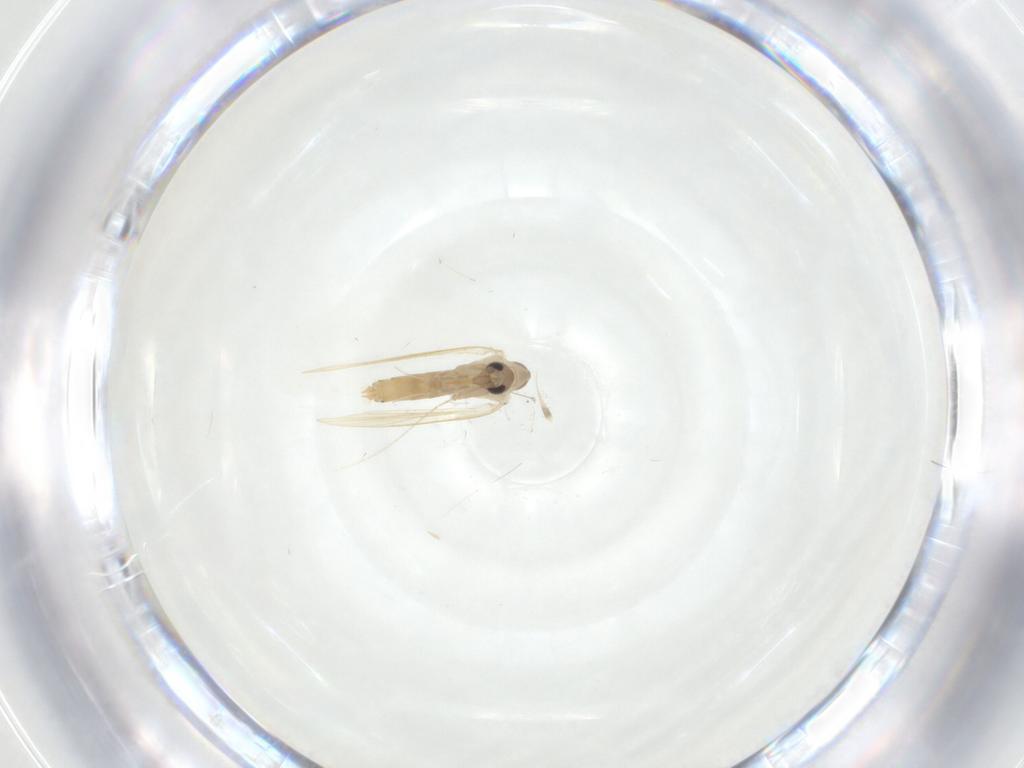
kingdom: Animalia
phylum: Arthropoda
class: Insecta
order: Diptera
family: Psychodidae
